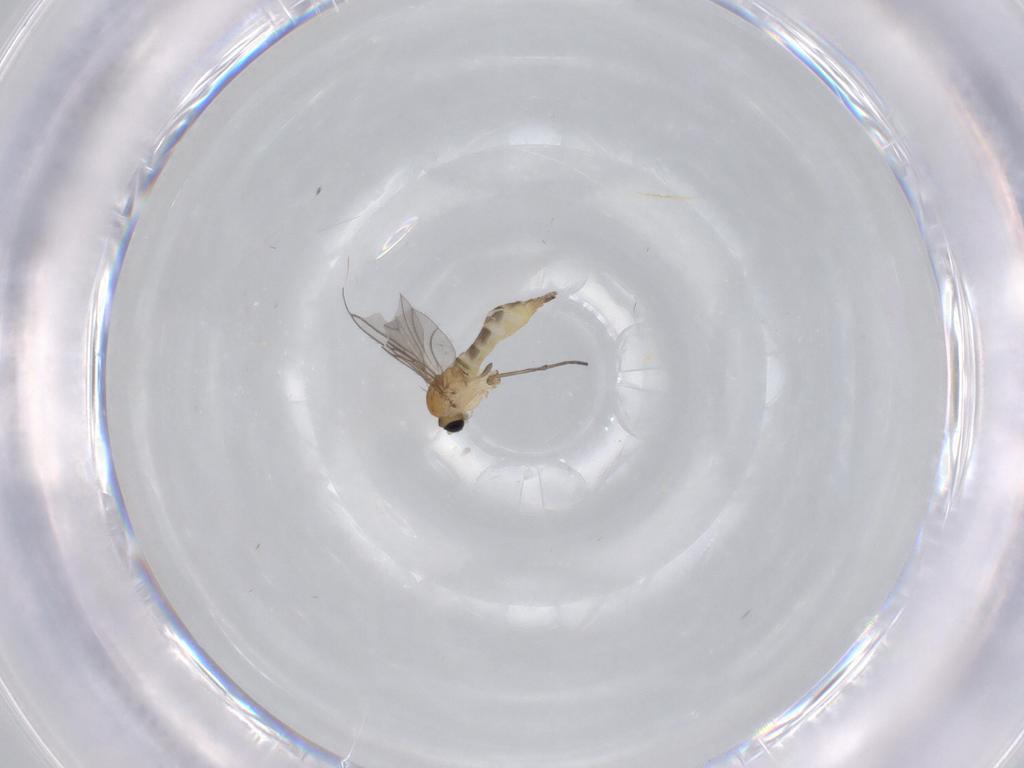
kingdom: Animalia
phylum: Arthropoda
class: Insecta
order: Diptera
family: Sciaridae
